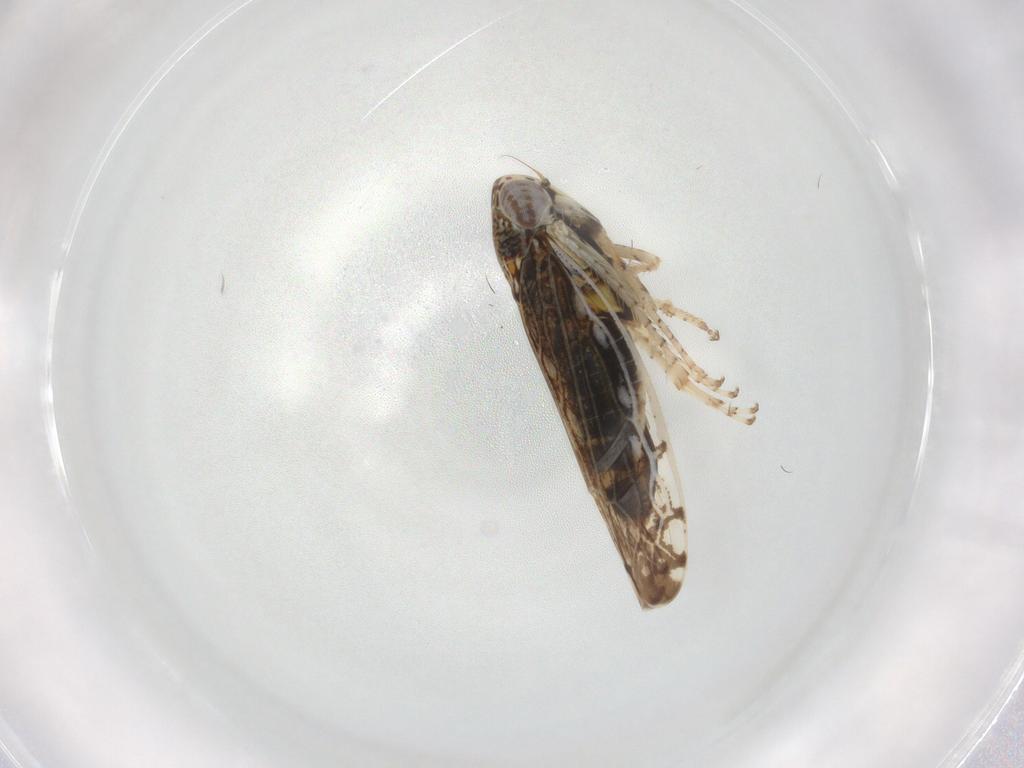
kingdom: Animalia
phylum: Arthropoda
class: Insecta
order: Hemiptera
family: Cicadellidae
